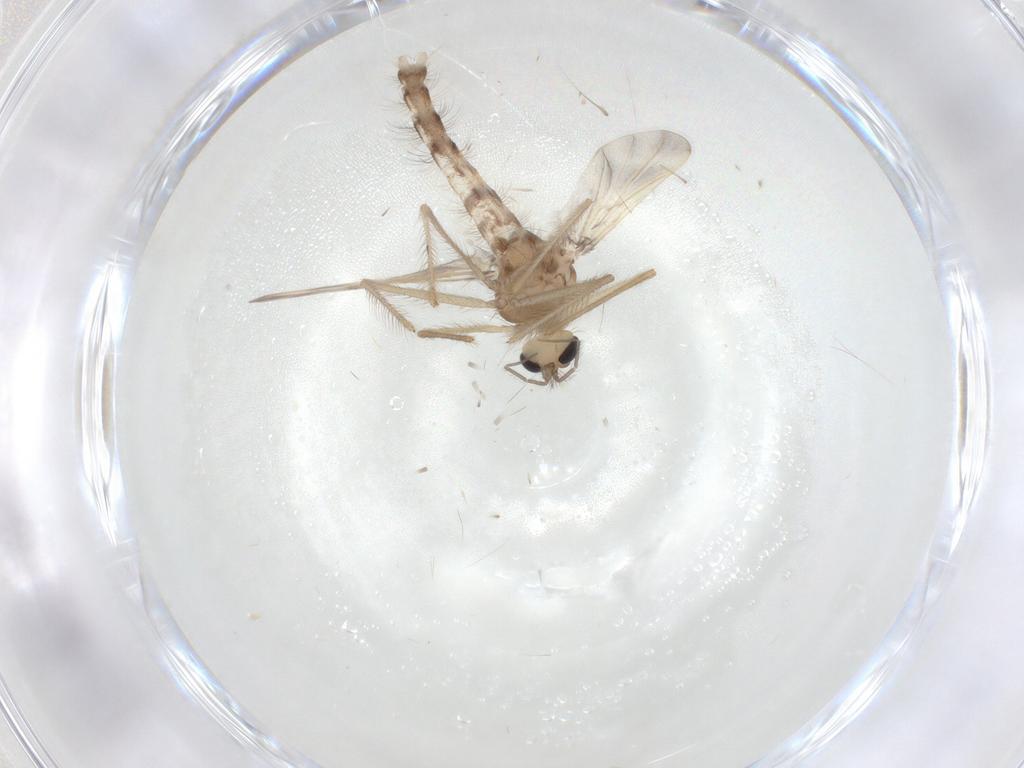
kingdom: Animalia
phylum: Arthropoda
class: Insecta
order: Diptera
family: Chironomidae
